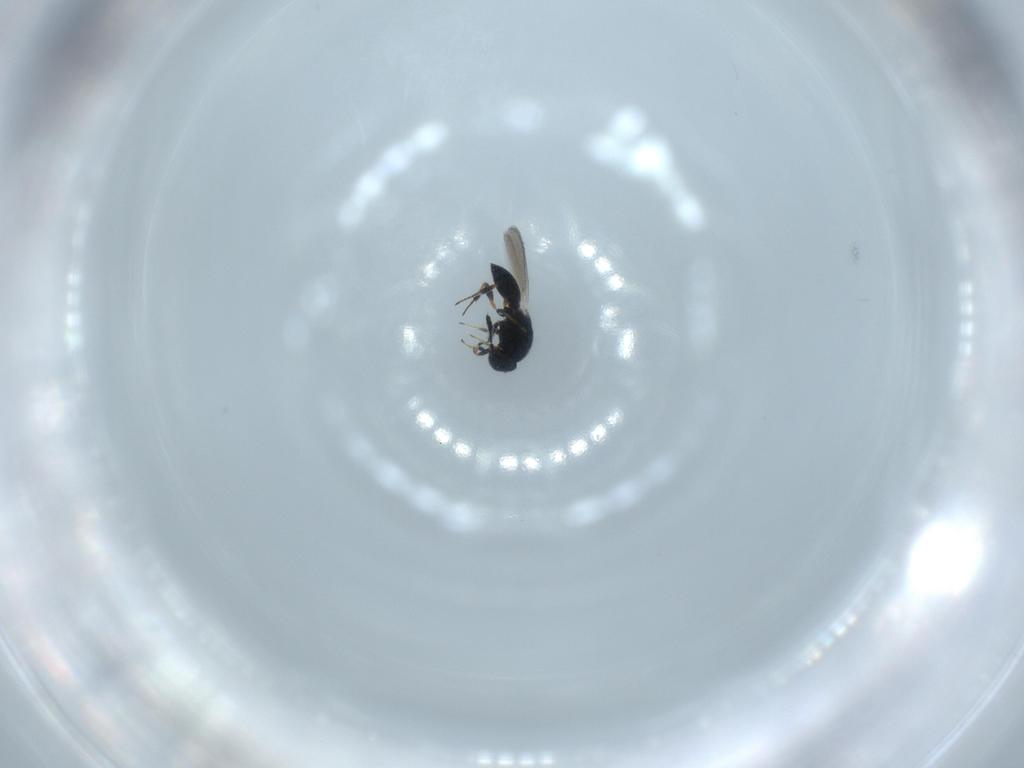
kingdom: Animalia
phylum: Arthropoda
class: Insecta
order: Hymenoptera
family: Platygastridae
